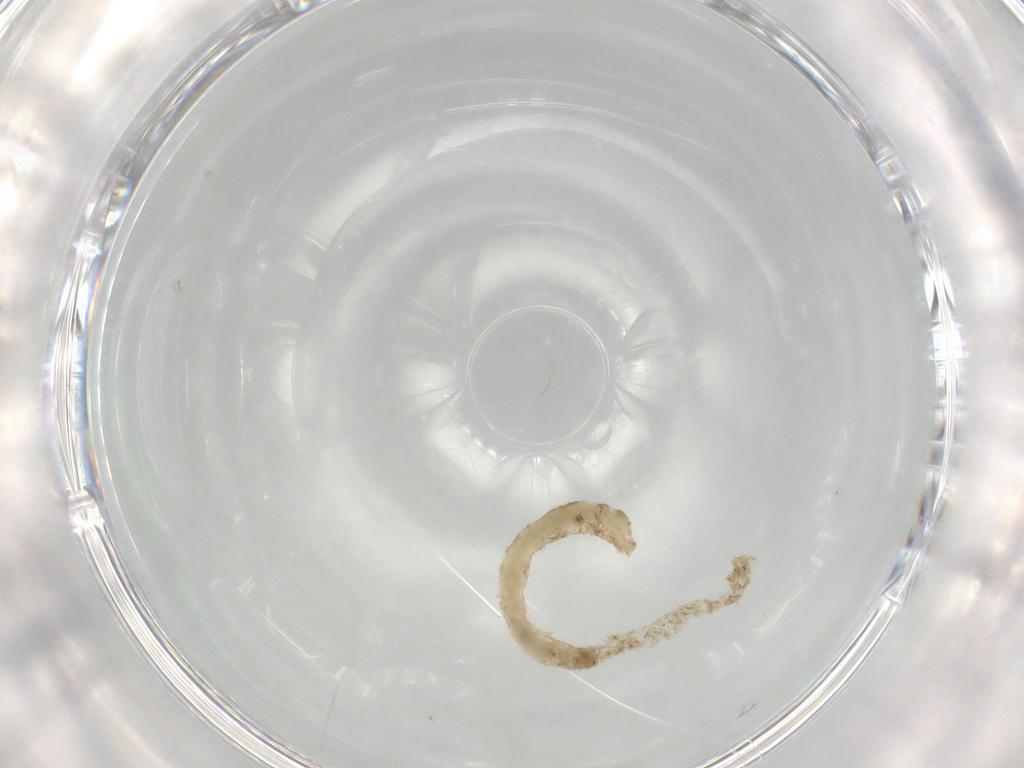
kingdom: Animalia
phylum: Arthropoda
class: Insecta
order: Diptera
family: Chironomidae
